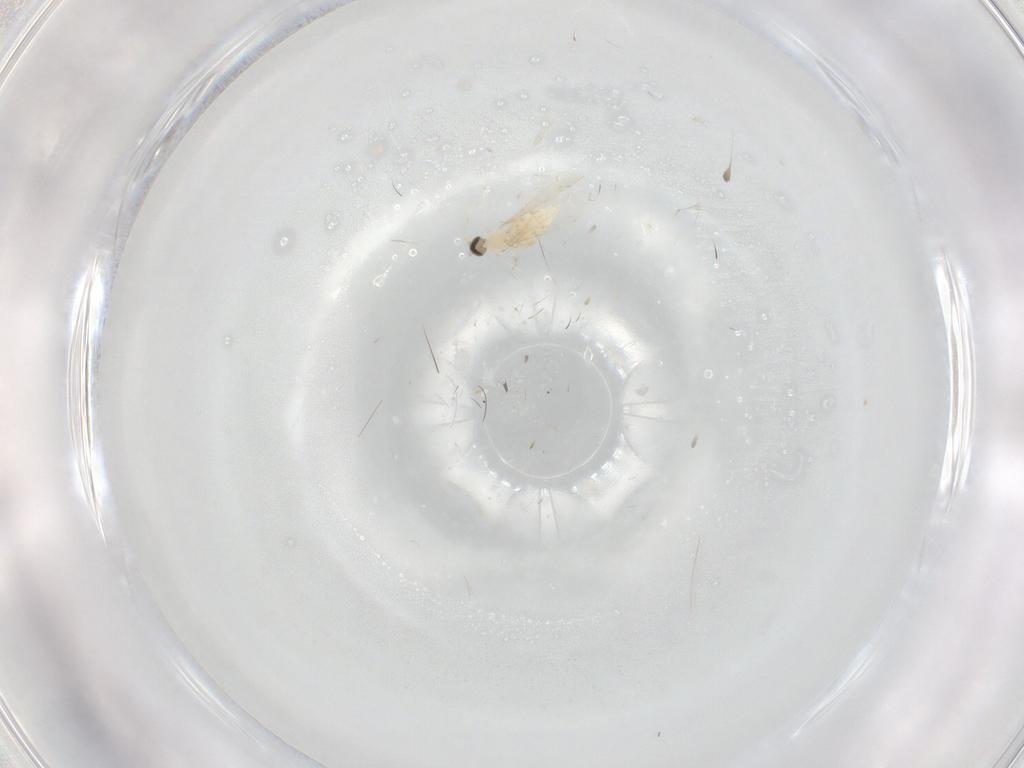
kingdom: Animalia
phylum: Arthropoda
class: Insecta
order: Diptera
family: Cecidomyiidae
